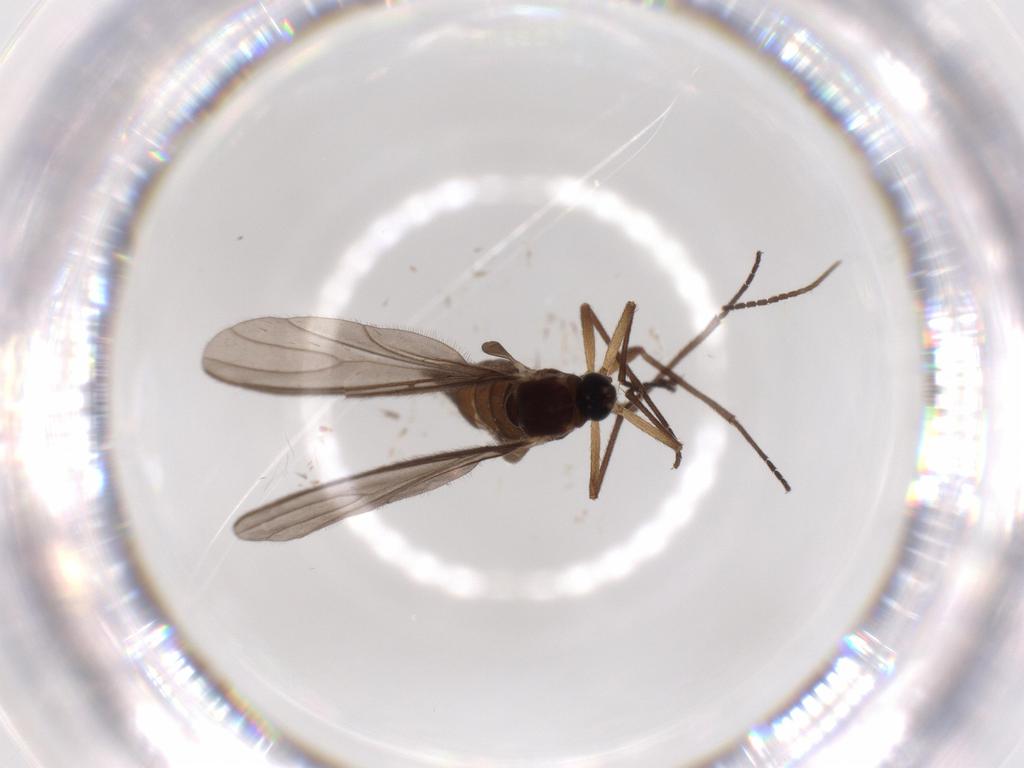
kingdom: Animalia
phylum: Arthropoda
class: Insecta
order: Diptera
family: Sciaridae
